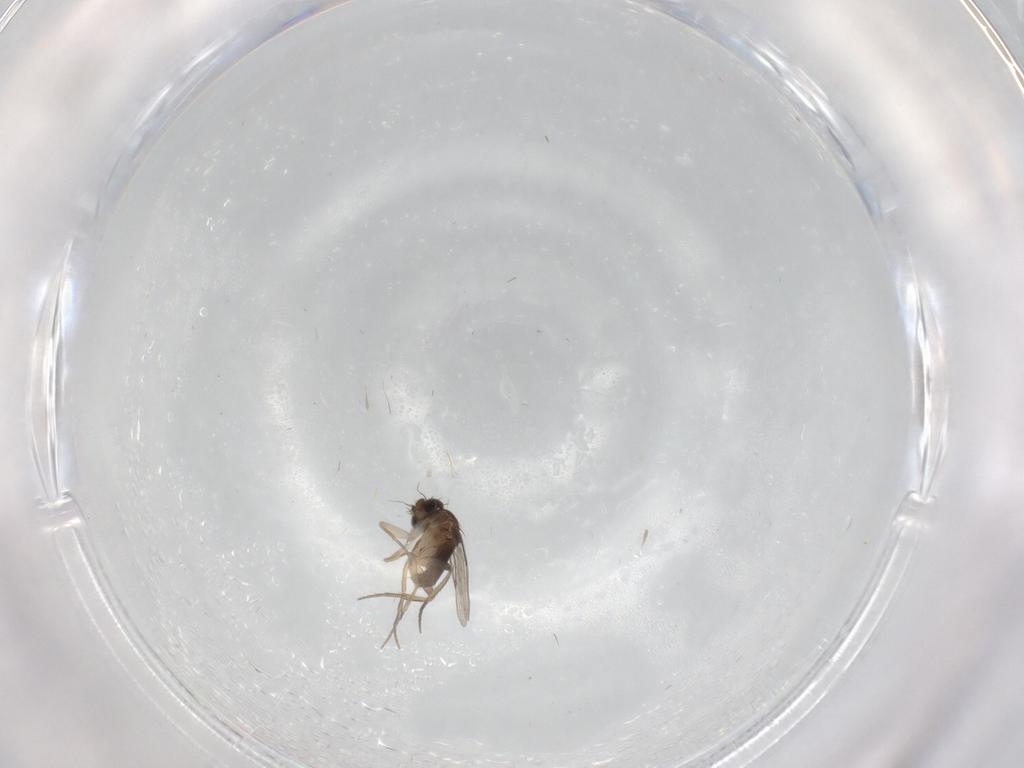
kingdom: Animalia
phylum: Arthropoda
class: Insecta
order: Diptera
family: Phoridae
